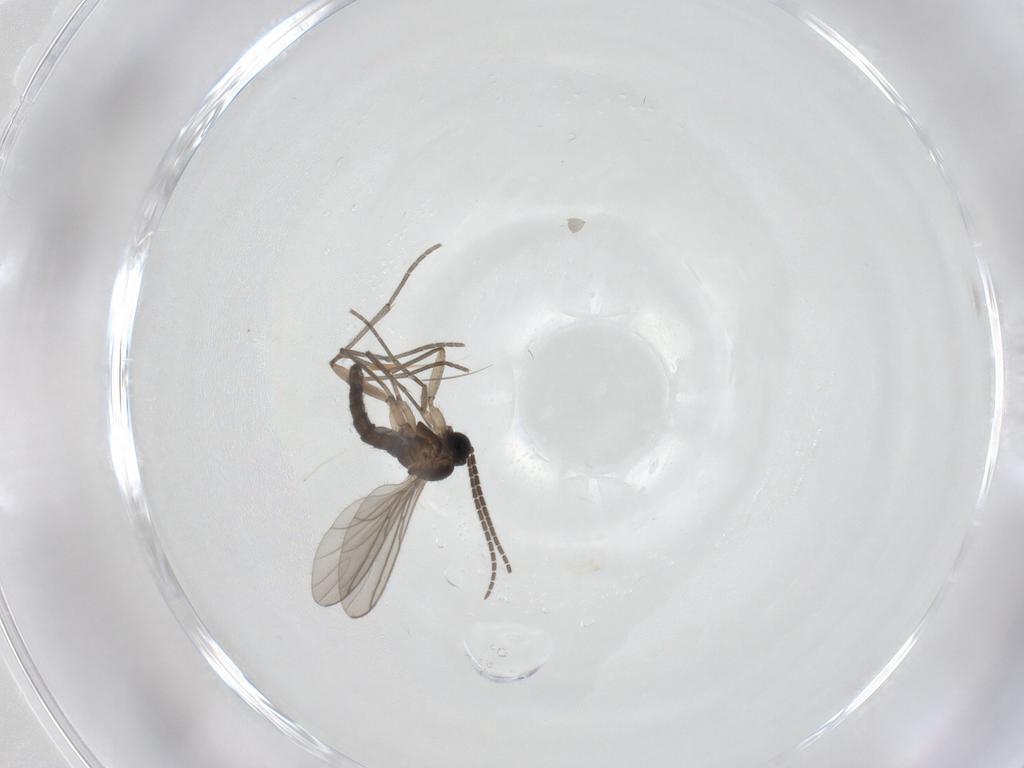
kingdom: Animalia
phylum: Arthropoda
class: Insecta
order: Diptera
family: Sciaridae
